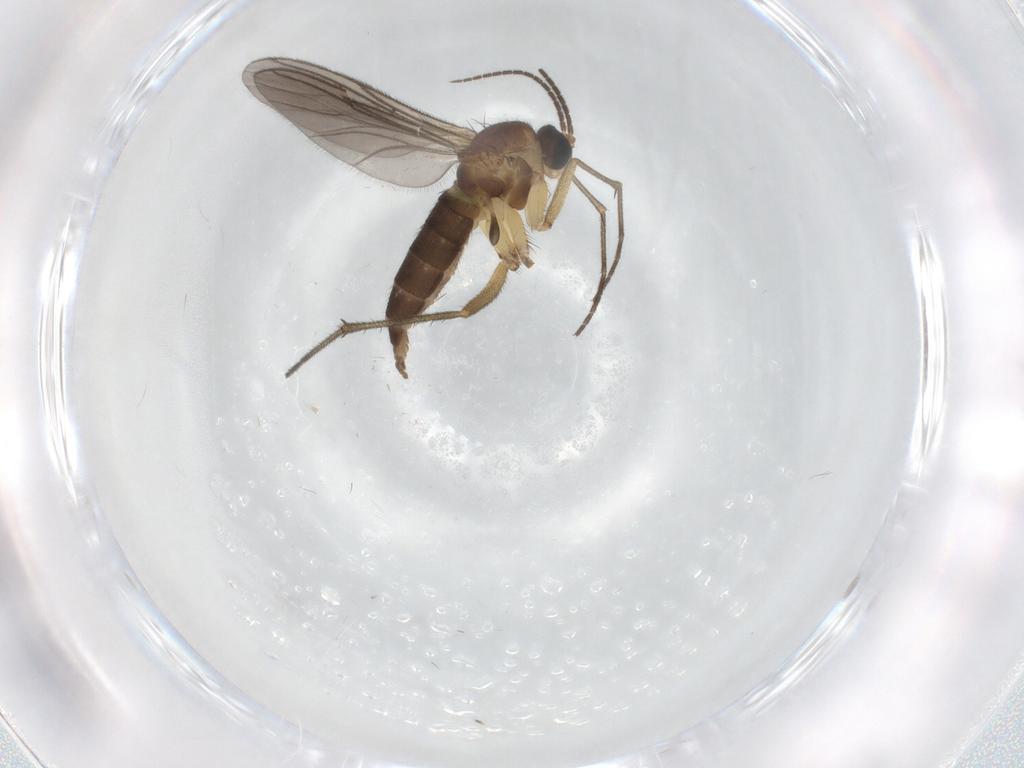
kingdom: Animalia
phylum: Arthropoda
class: Insecta
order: Diptera
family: Sciaridae
